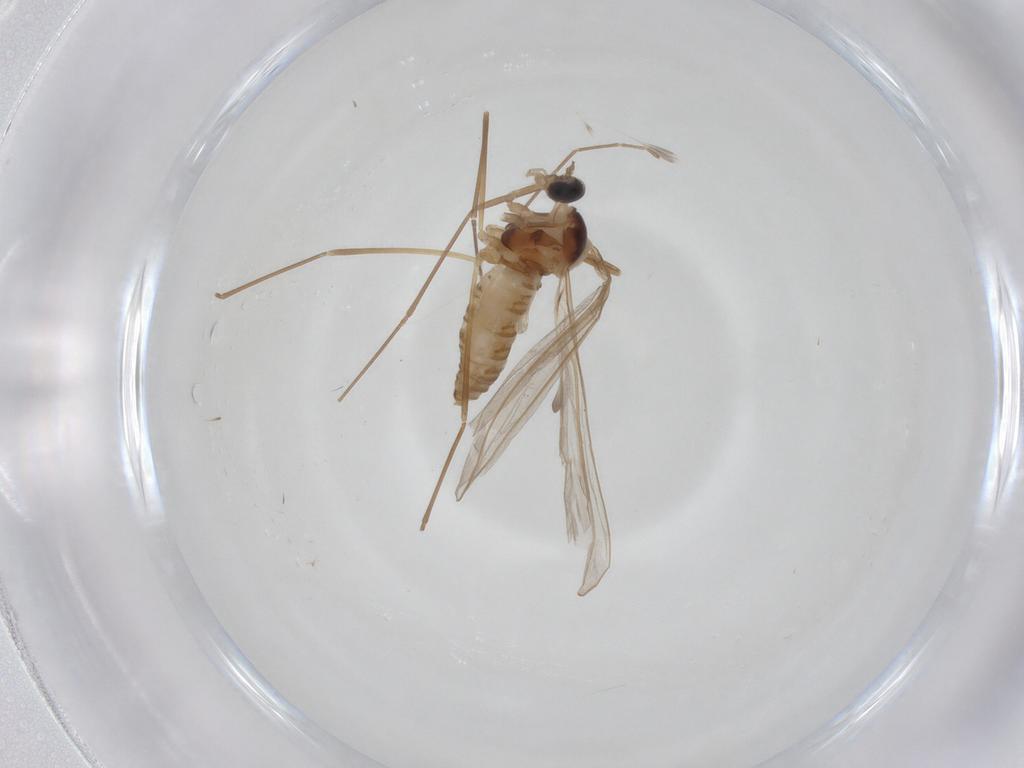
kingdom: Animalia
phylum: Arthropoda
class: Insecta
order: Diptera
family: Cecidomyiidae
